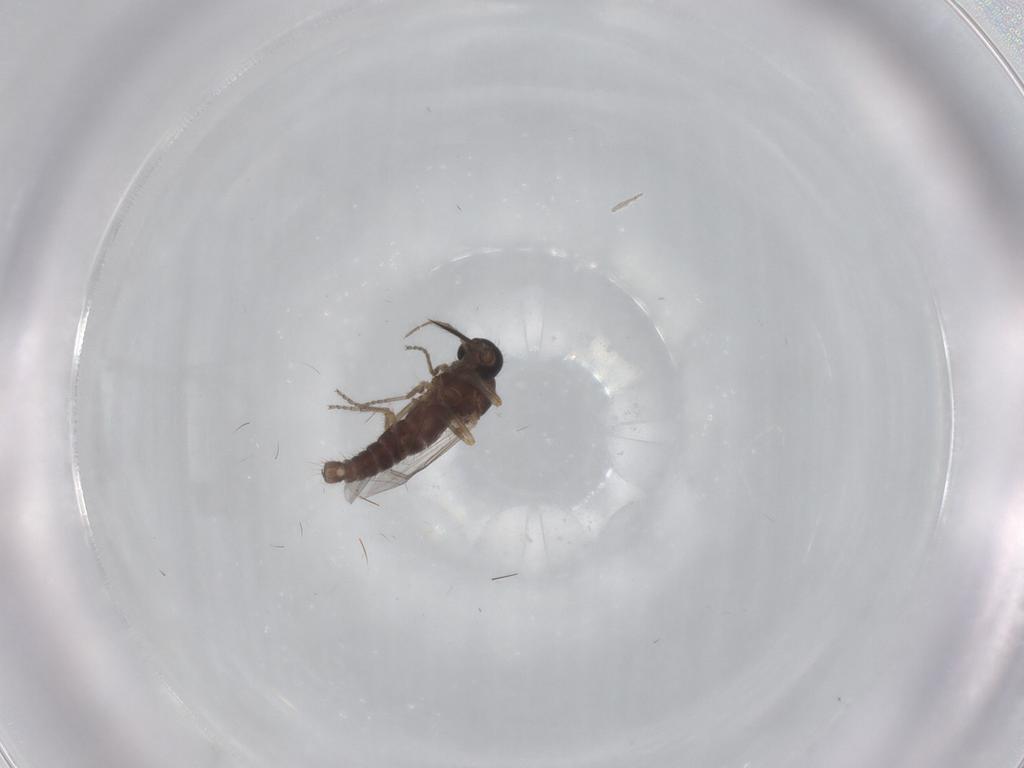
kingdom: Animalia
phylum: Arthropoda
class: Insecta
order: Diptera
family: Ceratopogonidae
